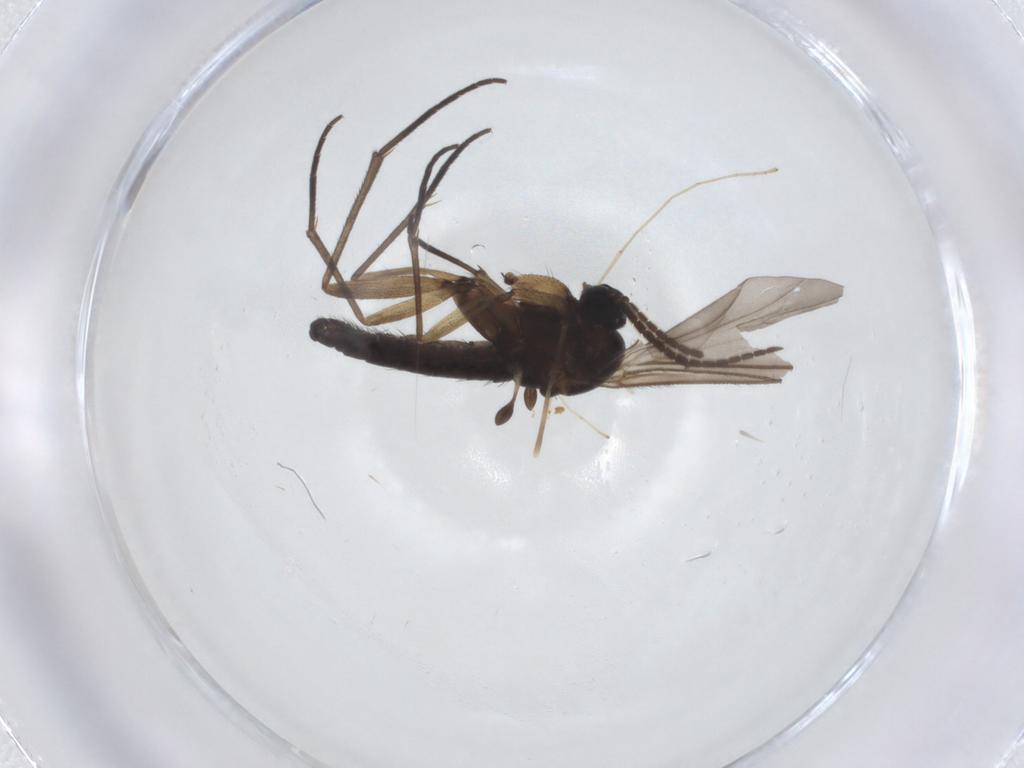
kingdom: Animalia
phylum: Arthropoda
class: Insecta
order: Diptera
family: Sciaridae
